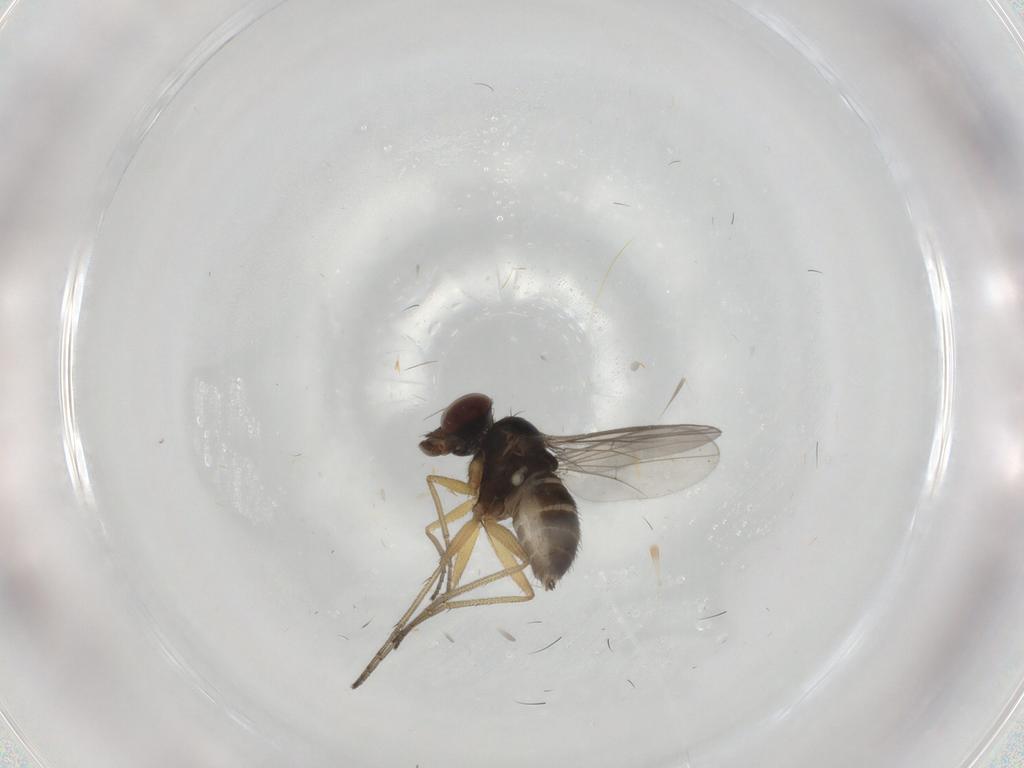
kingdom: Animalia
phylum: Arthropoda
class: Insecta
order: Diptera
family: Dolichopodidae
